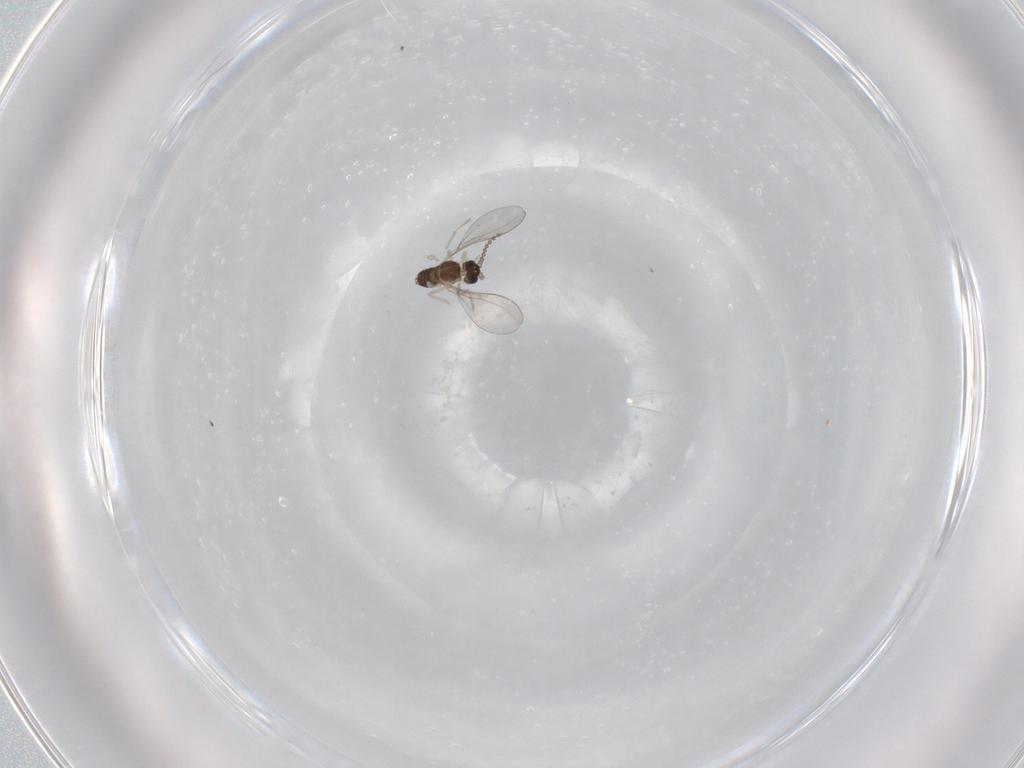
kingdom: Animalia
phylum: Arthropoda
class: Insecta
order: Diptera
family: Cecidomyiidae
